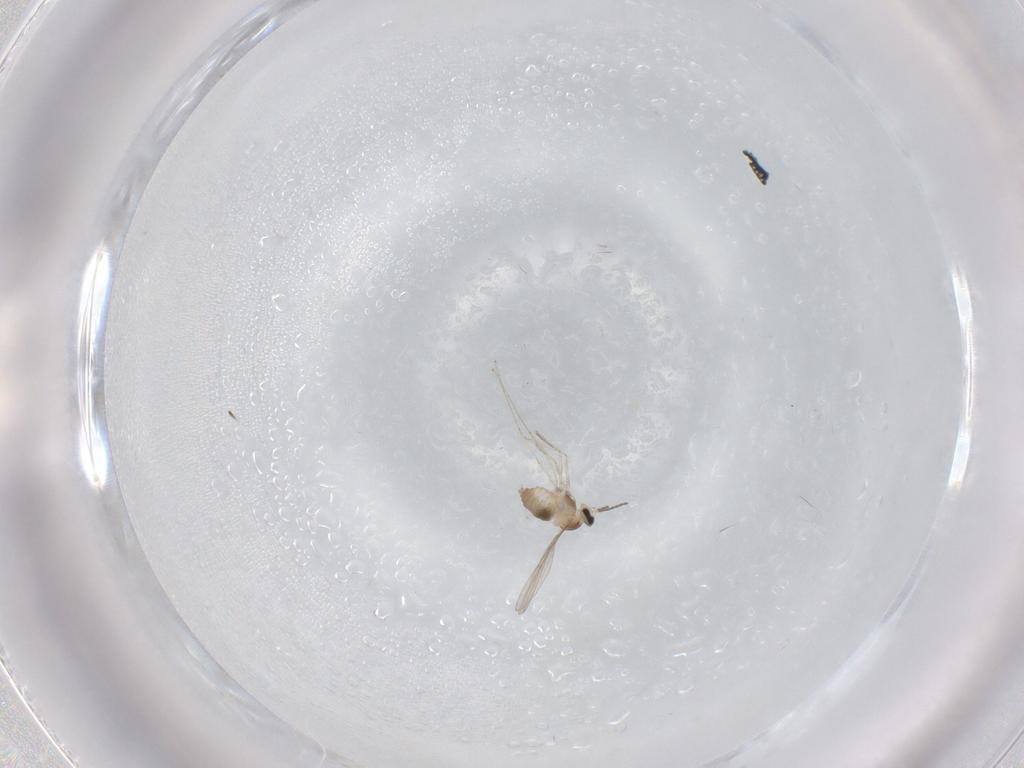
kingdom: Animalia
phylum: Arthropoda
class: Insecta
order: Diptera
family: Cecidomyiidae
